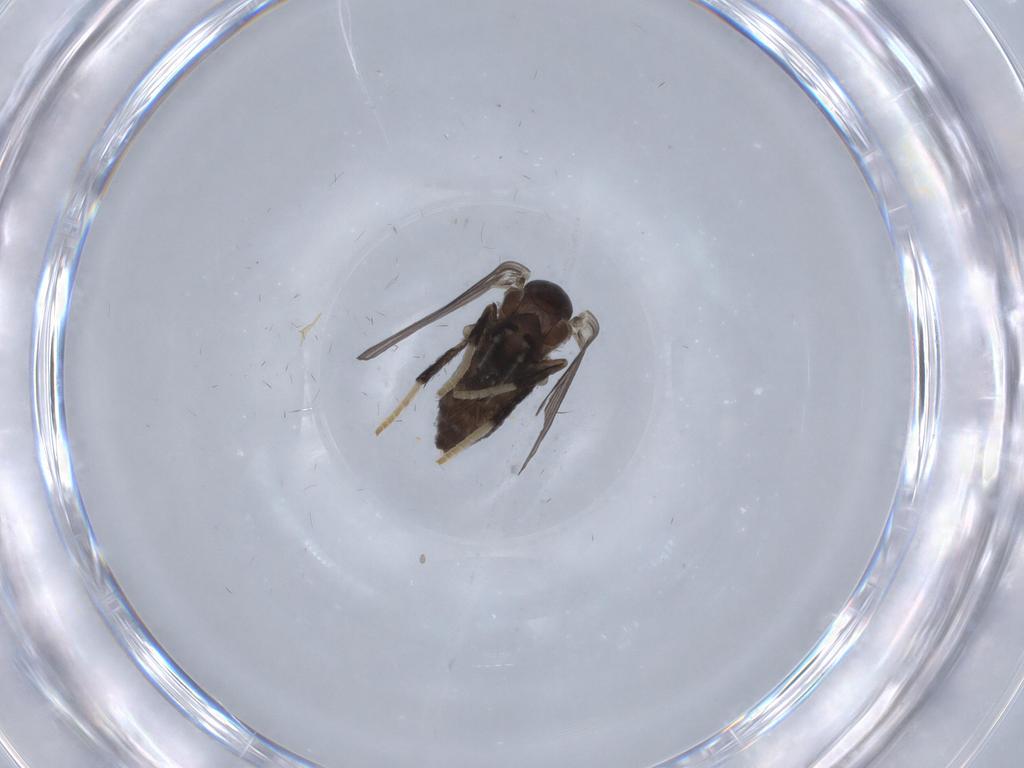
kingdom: Animalia
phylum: Arthropoda
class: Insecta
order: Diptera
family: Psychodidae
